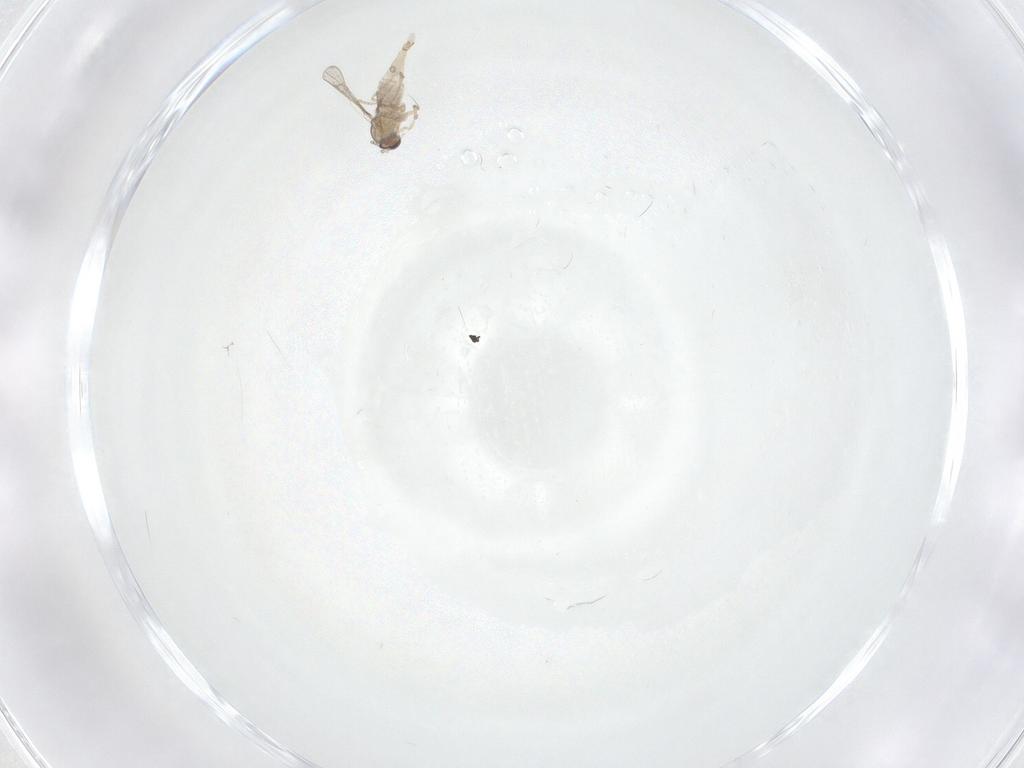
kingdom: Animalia
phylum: Arthropoda
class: Insecta
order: Diptera
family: Cecidomyiidae
